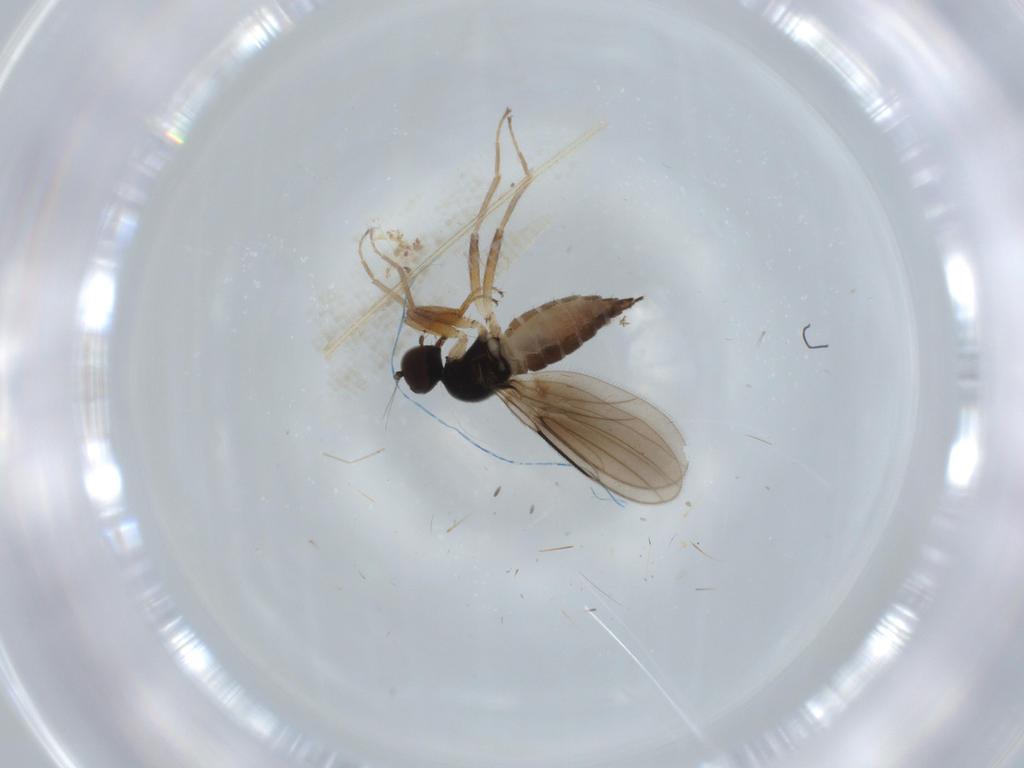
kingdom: Animalia
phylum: Arthropoda
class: Insecta
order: Diptera
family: Hybotidae
